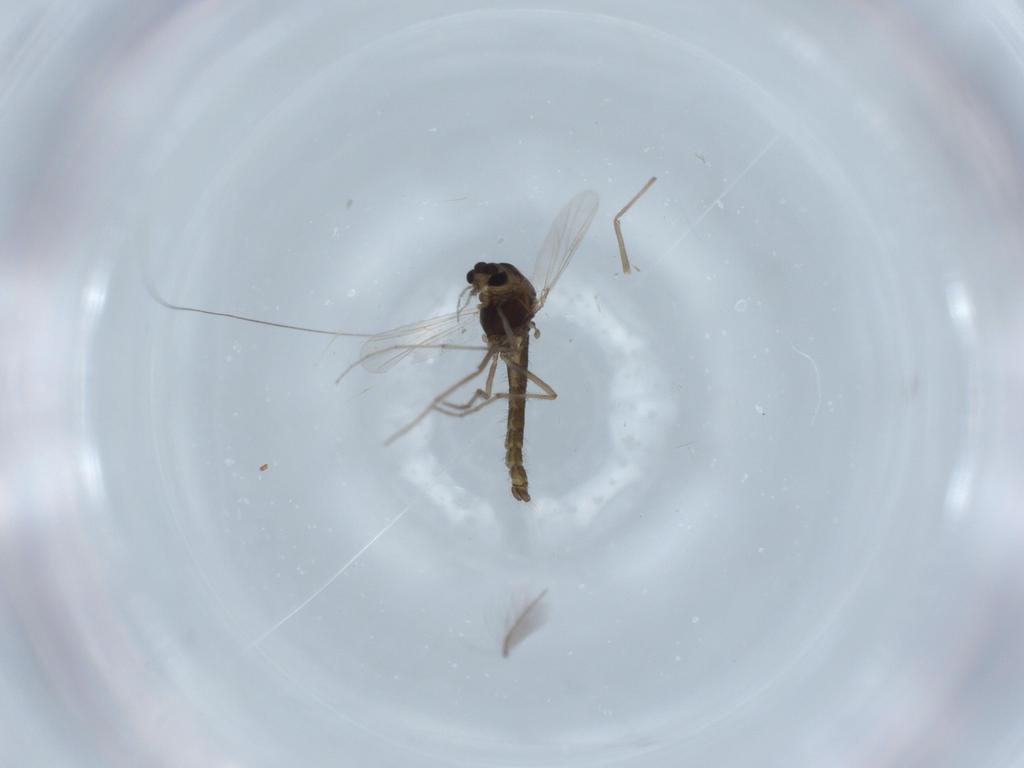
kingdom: Animalia
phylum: Arthropoda
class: Insecta
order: Diptera
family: Chironomidae
